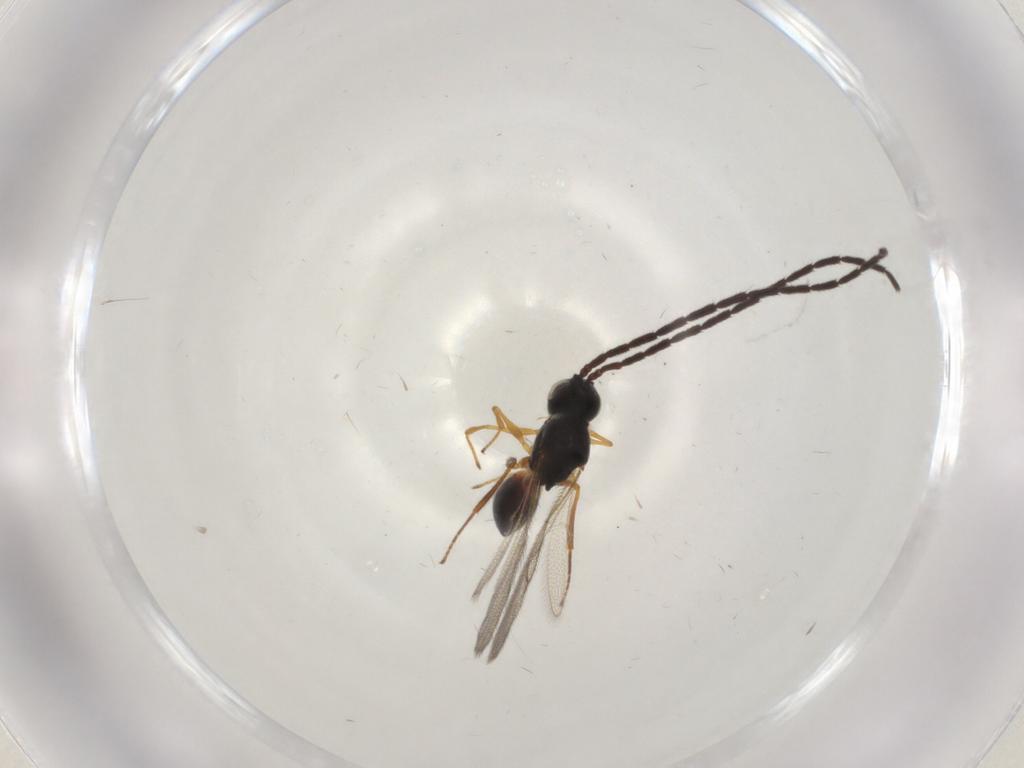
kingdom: Animalia
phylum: Arthropoda
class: Insecta
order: Hymenoptera
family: Figitidae
